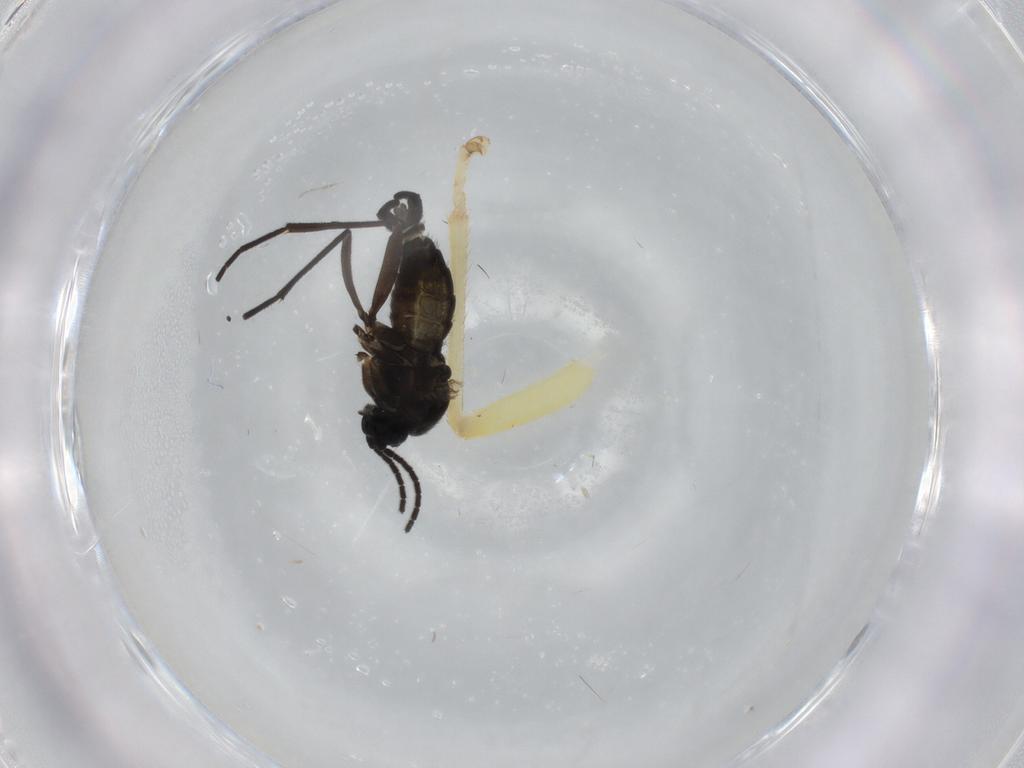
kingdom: Animalia
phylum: Arthropoda
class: Insecta
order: Diptera
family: Sciaridae
